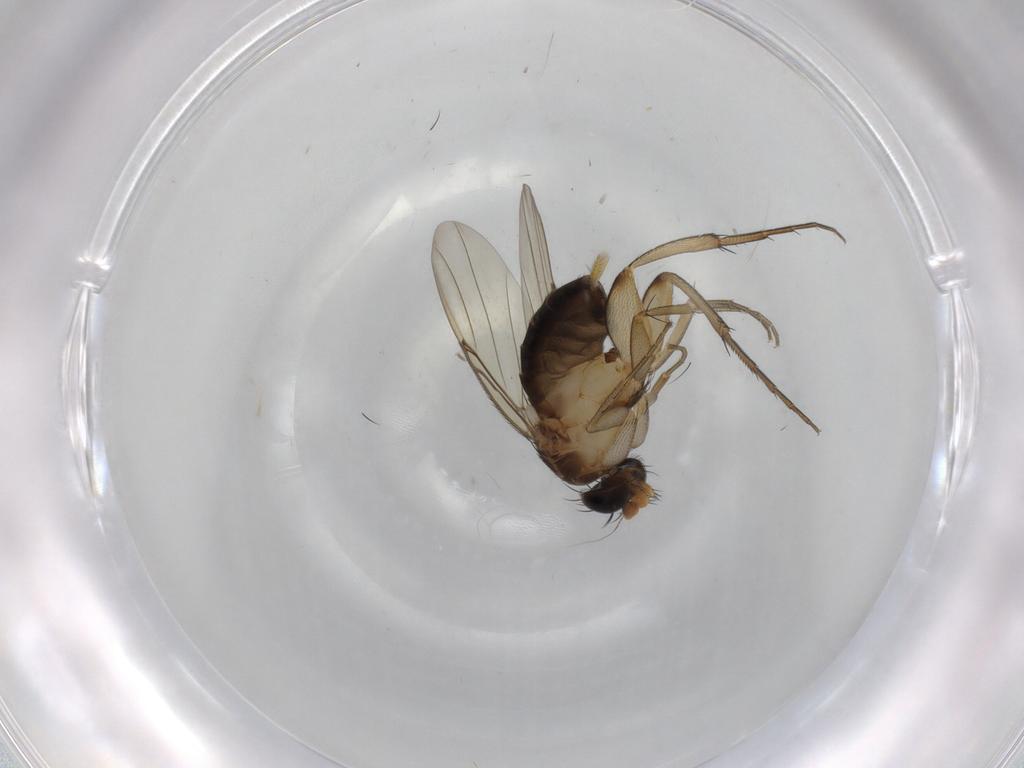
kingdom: Animalia
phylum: Arthropoda
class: Insecta
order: Diptera
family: Phoridae
